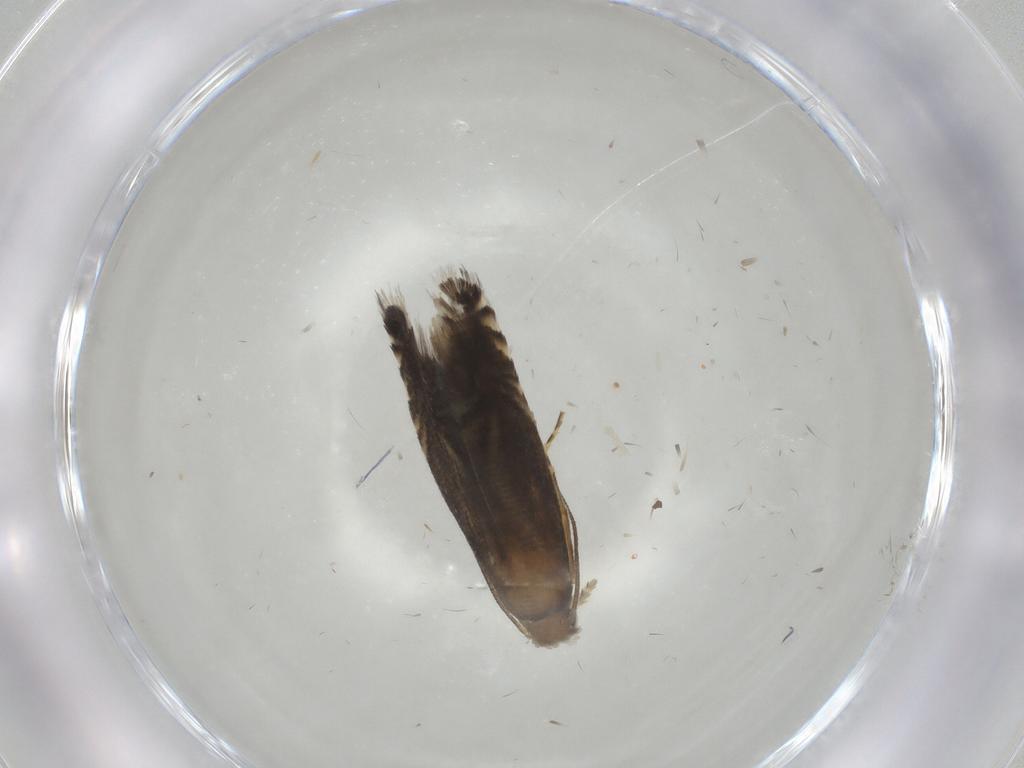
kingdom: Animalia
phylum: Arthropoda
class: Insecta
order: Lepidoptera
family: Glyphipterigidae
